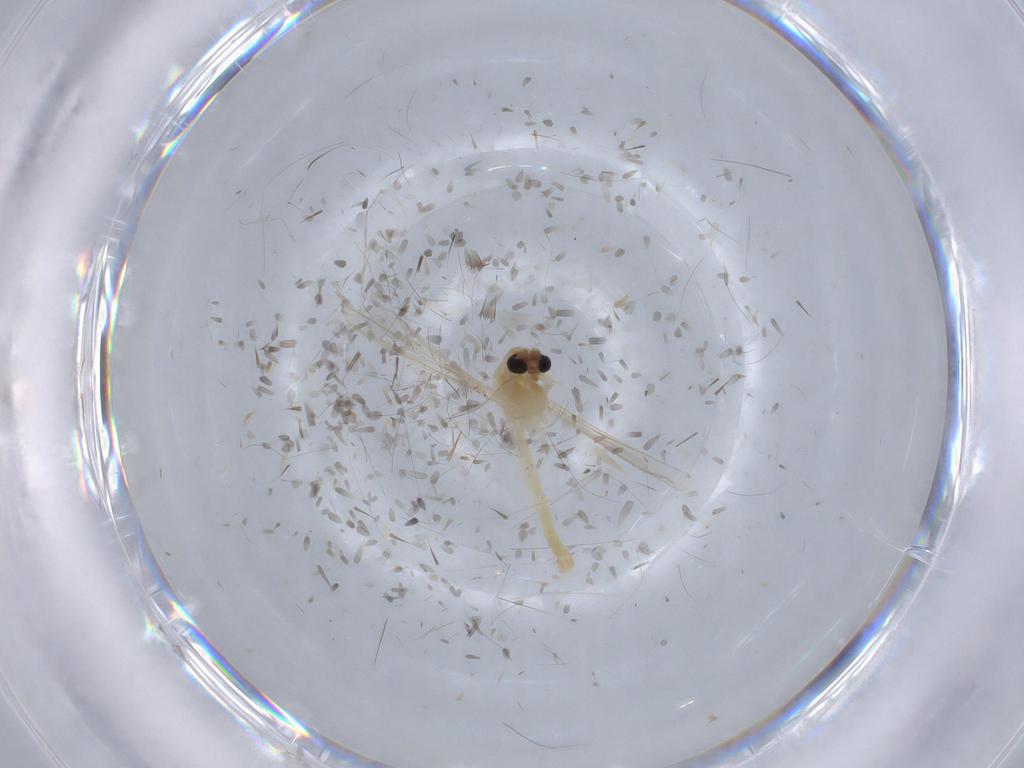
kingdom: Animalia
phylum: Arthropoda
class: Insecta
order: Diptera
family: Chironomidae
